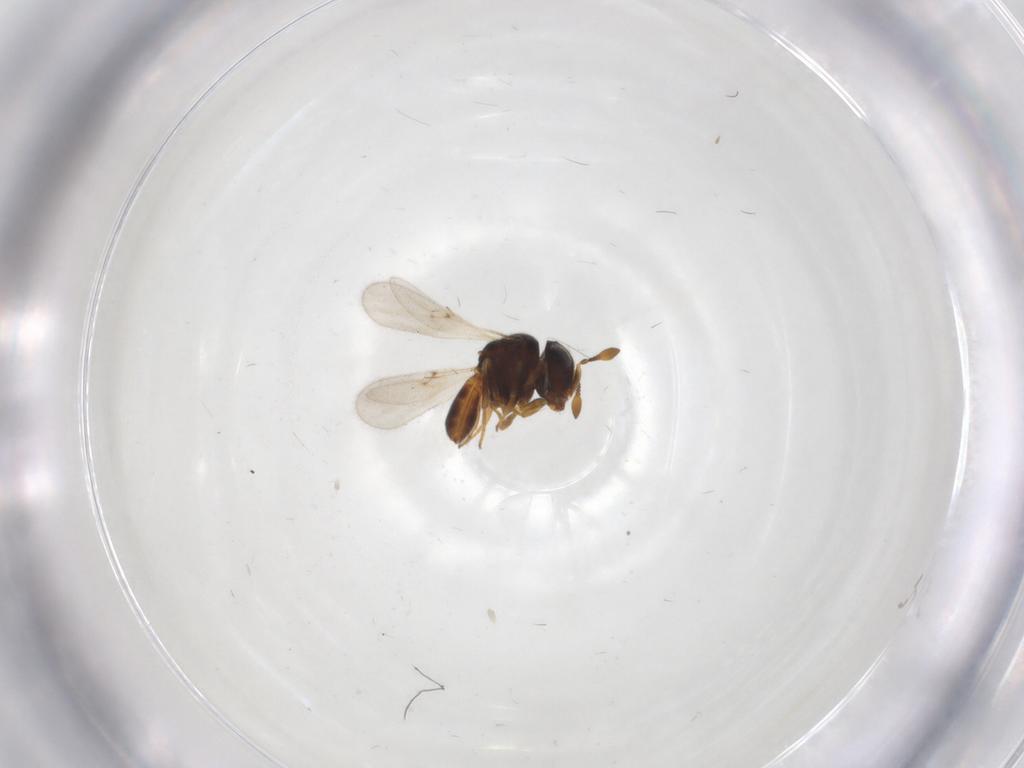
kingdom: Animalia
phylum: Arthropoda
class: Insecta
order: Hymenoptera
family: Scelionidae
